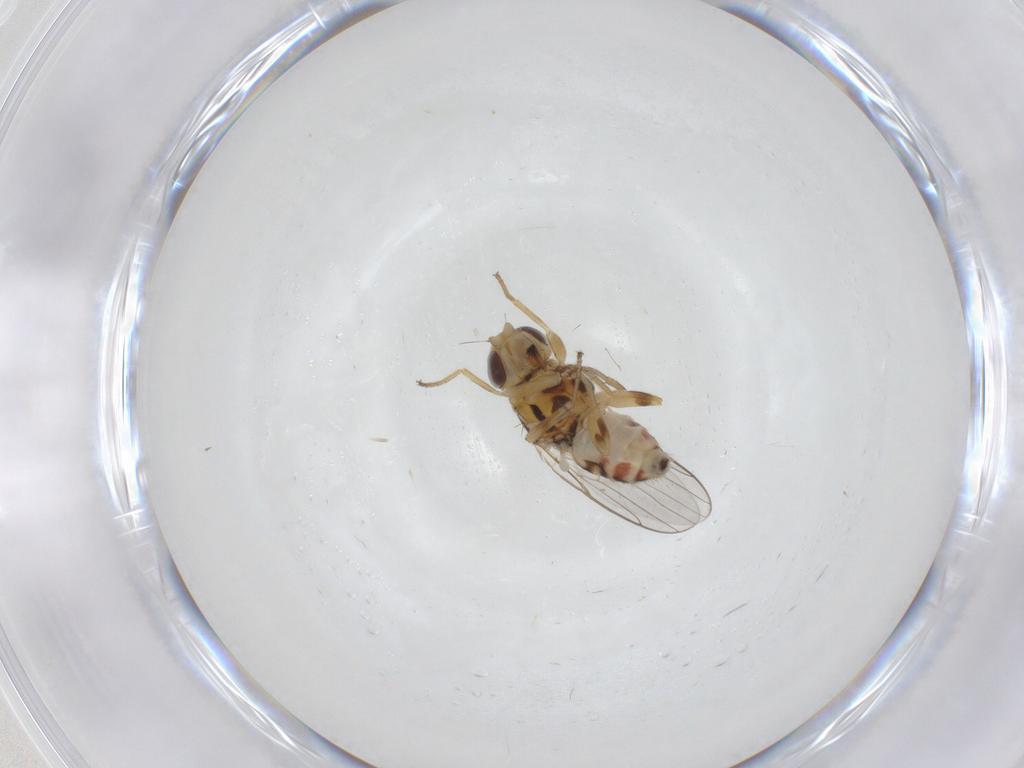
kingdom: Animalia
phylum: Arthropoda
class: Insecta
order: Diptera
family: Chloropidae
